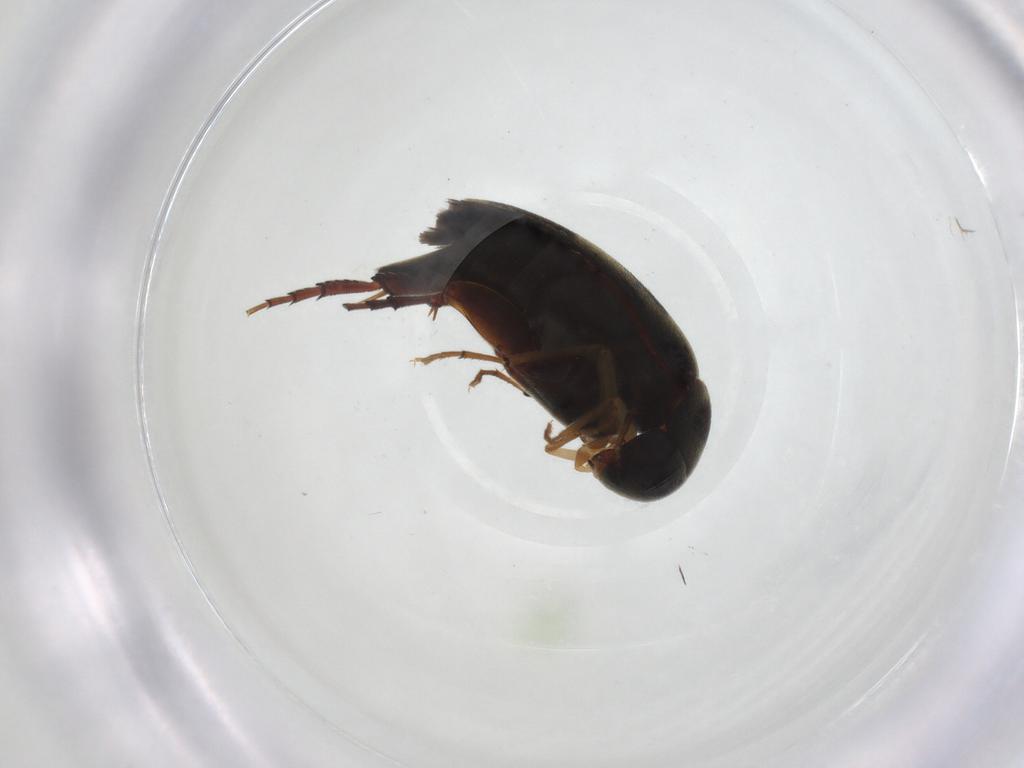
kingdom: Animalia
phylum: Arthropoda
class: Insecta
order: Coleoptera
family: Mordellidae
